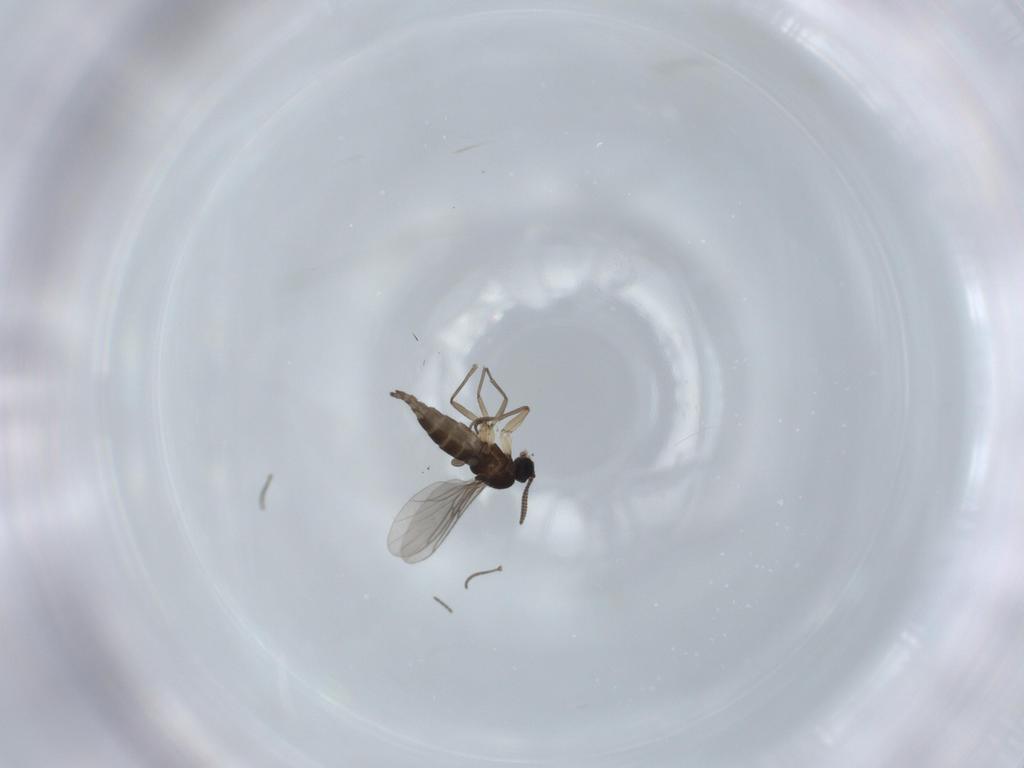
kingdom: Animalia
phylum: Arthropoda
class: Insecta
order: Diptera
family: Sciaridae
